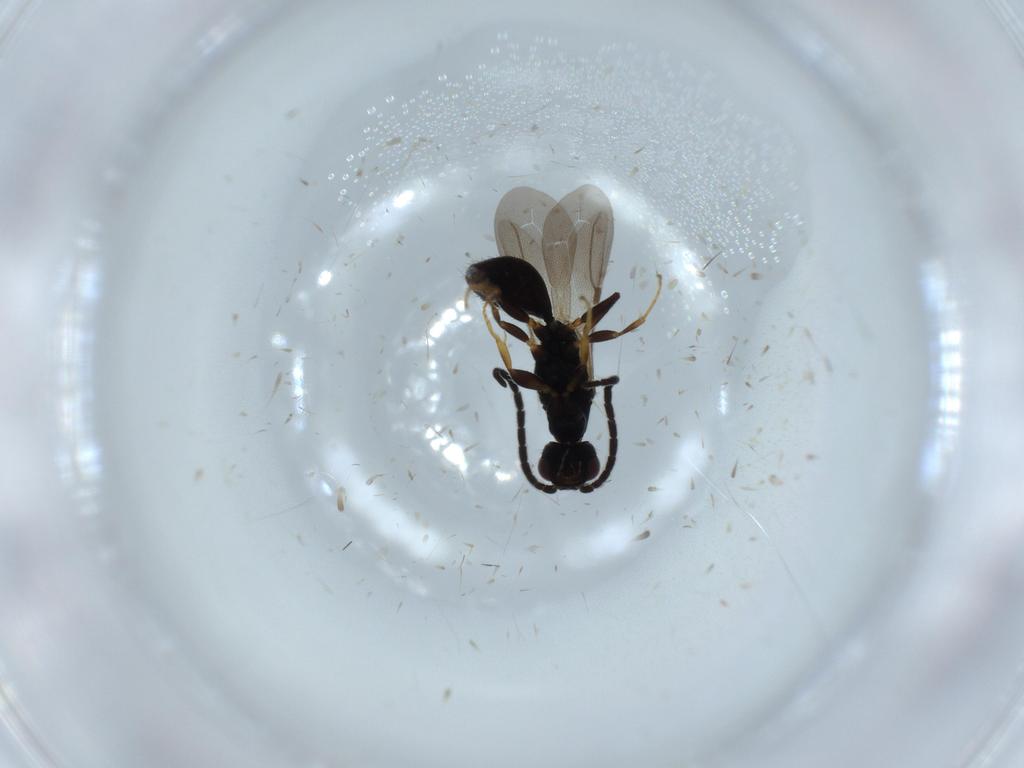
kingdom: Animalia
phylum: Arthropoda
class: Insecta
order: Hymenoptera
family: Bethylidae
